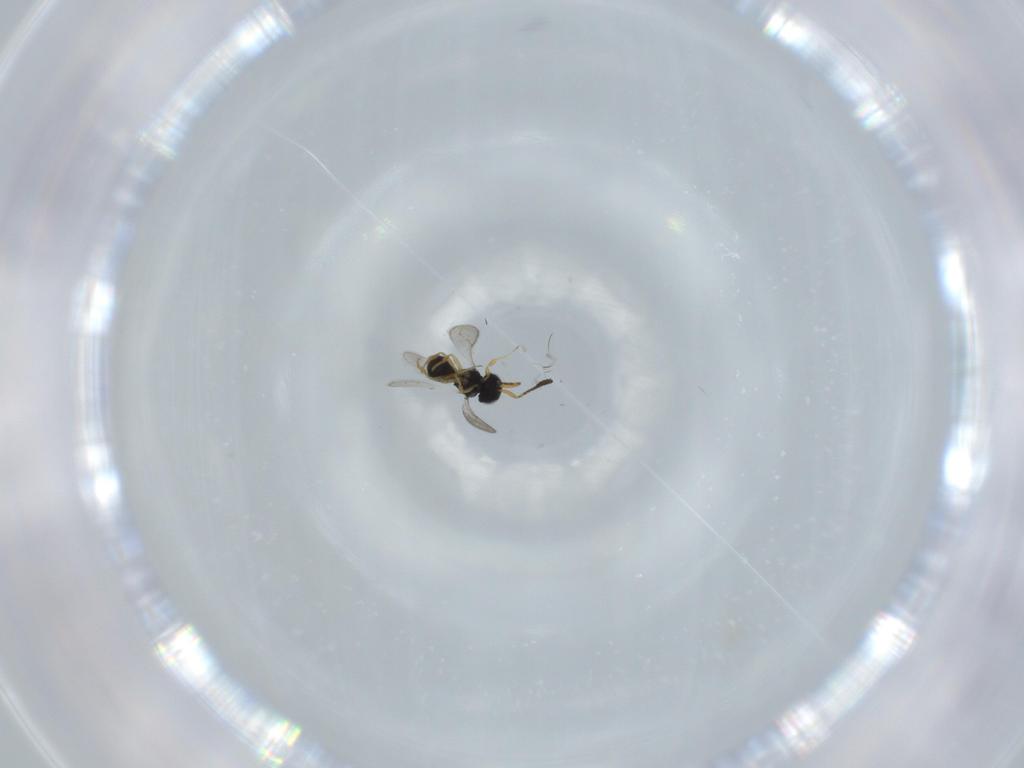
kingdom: Animalia
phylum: Arthropoda
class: Insecta
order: Hymenoptera
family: Scelionidae
